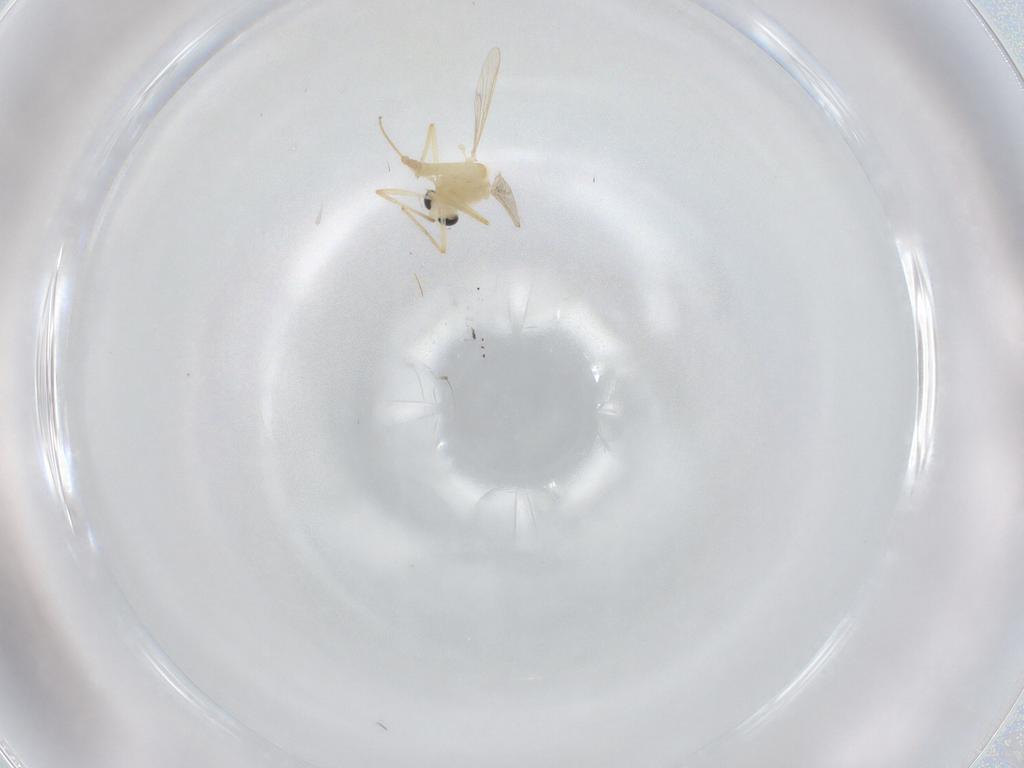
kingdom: Animalia
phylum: Arthropoda
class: Insecta
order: Diptera
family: Chironomidae
